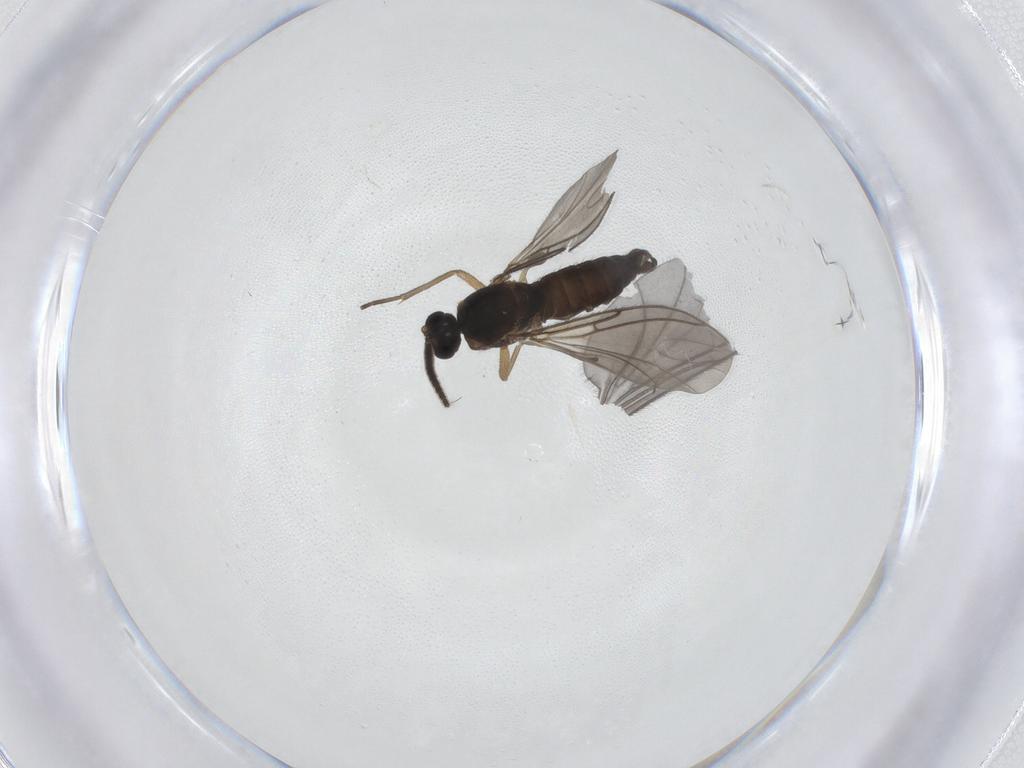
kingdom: Animalia
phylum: Arthropoda
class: Insecta
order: Diptera
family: Sciaridae
